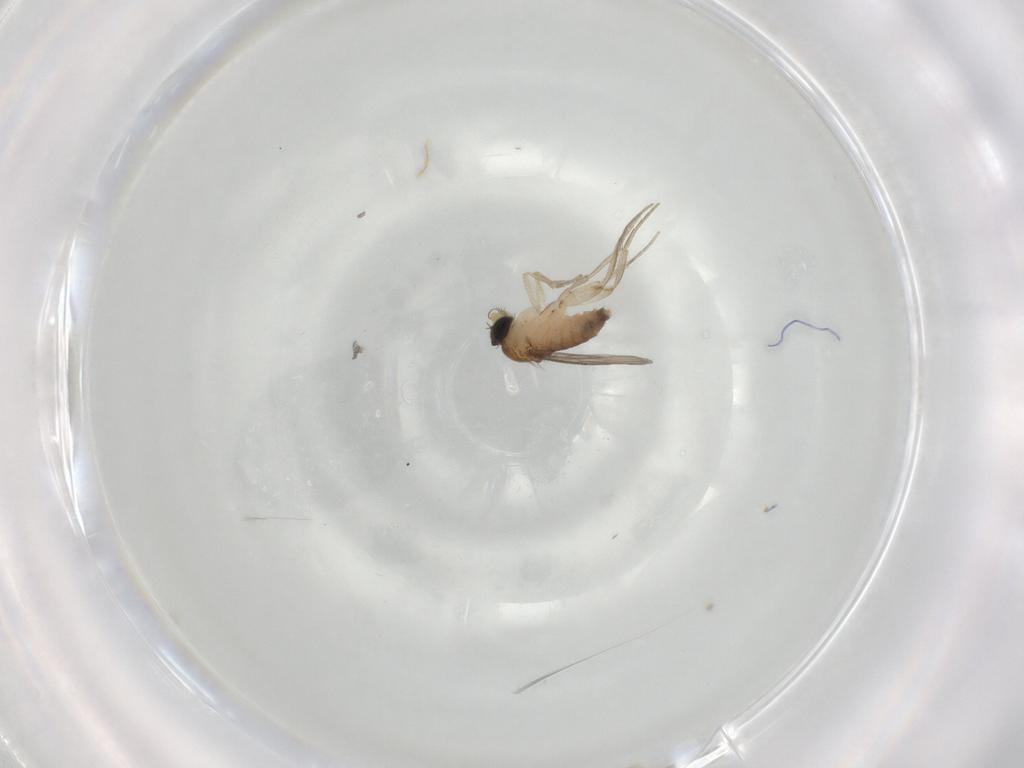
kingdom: Animalia
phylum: Arthropoda
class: Insecta
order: Diptera
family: Phoridae
